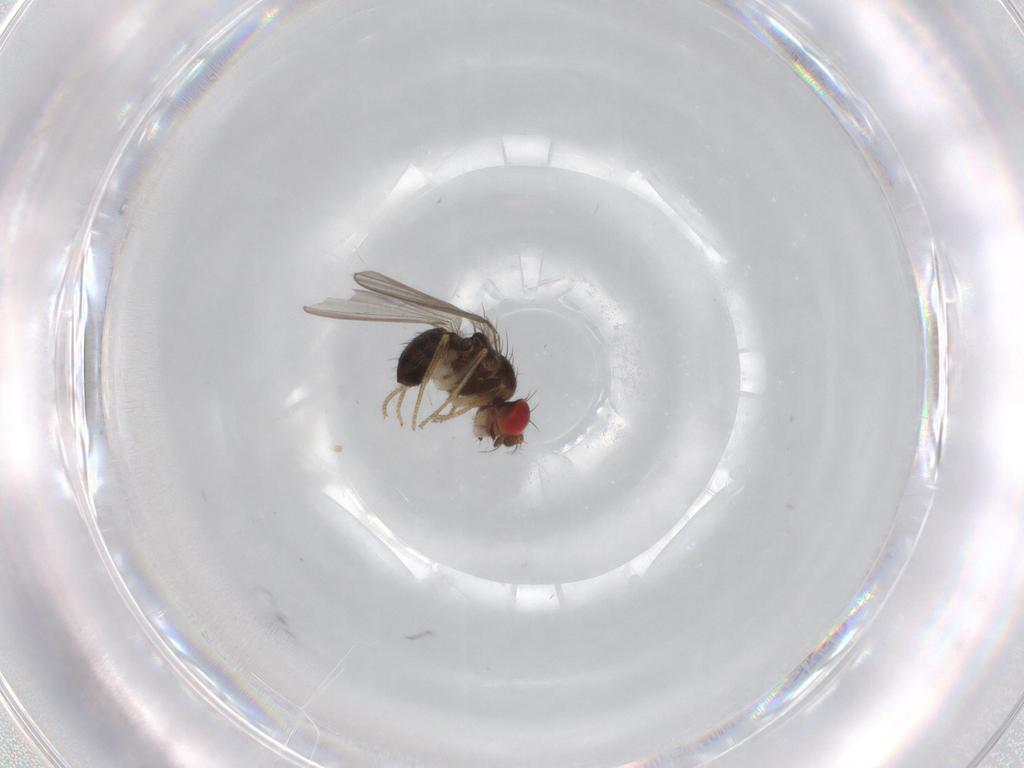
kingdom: Animalia
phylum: Arthropoda
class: Insecta
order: Diptera
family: Drosophilidae
